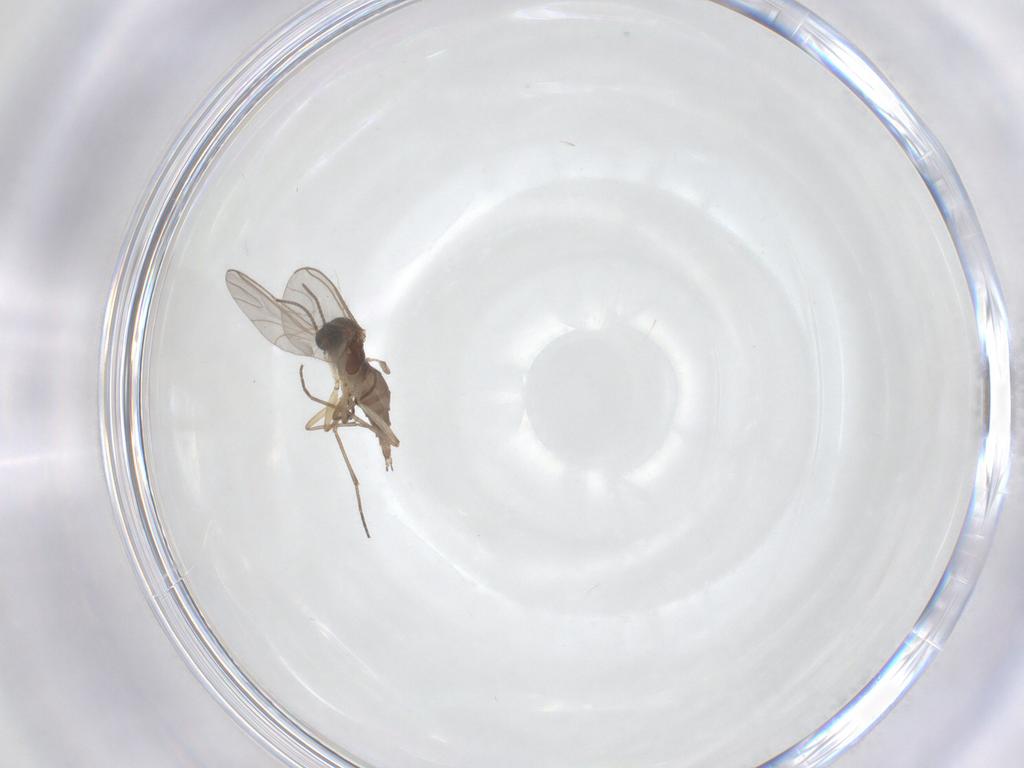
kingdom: Animalia
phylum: Arthropoda
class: Insecta
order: Diptera
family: Sciaridae
